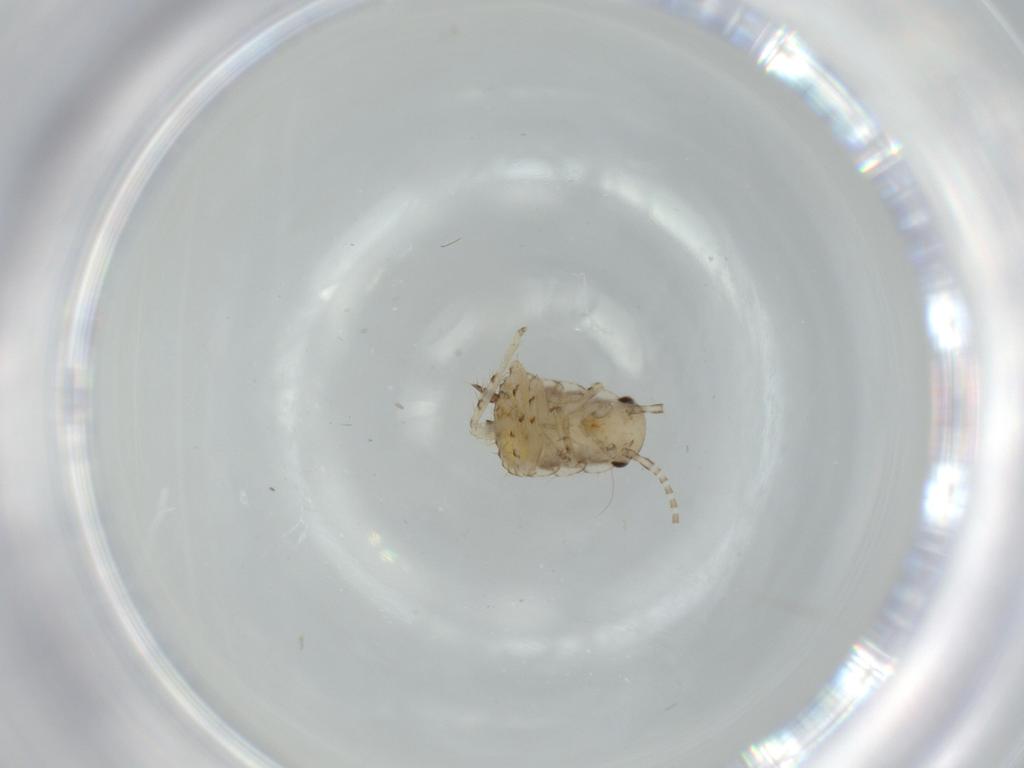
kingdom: Animalia
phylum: Arthropoda
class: Insecta
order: Blattodea
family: Ectobiidae
